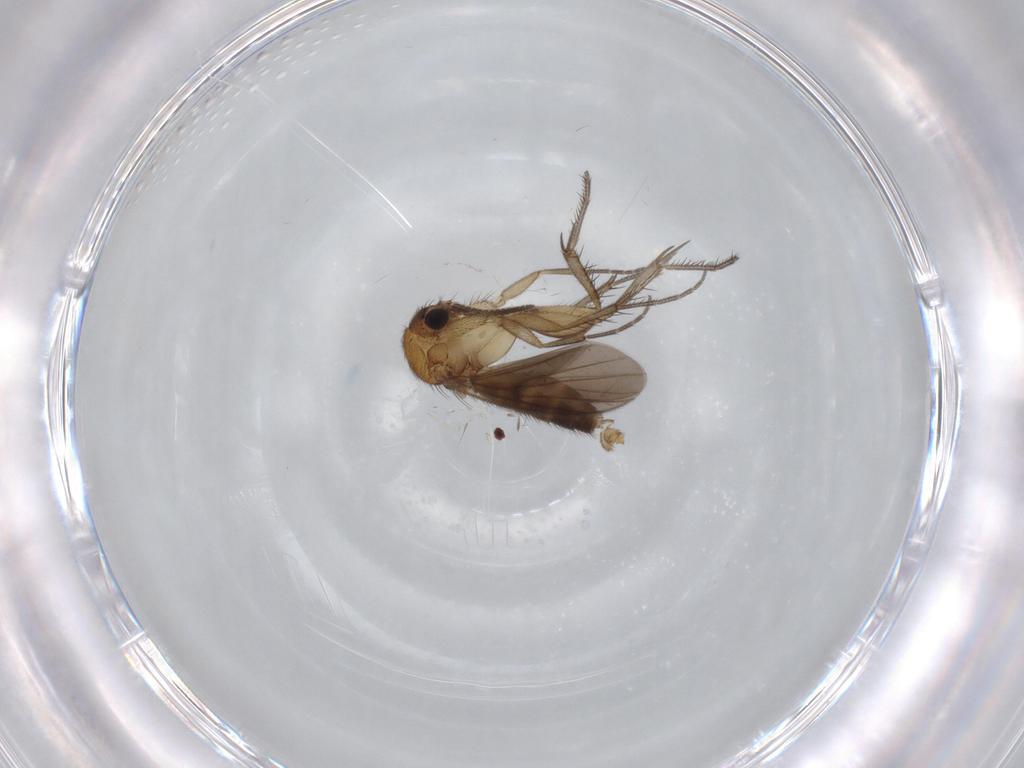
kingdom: Animalia
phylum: Arthropoda
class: Insecta
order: Diptera
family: Mycetophilidae
